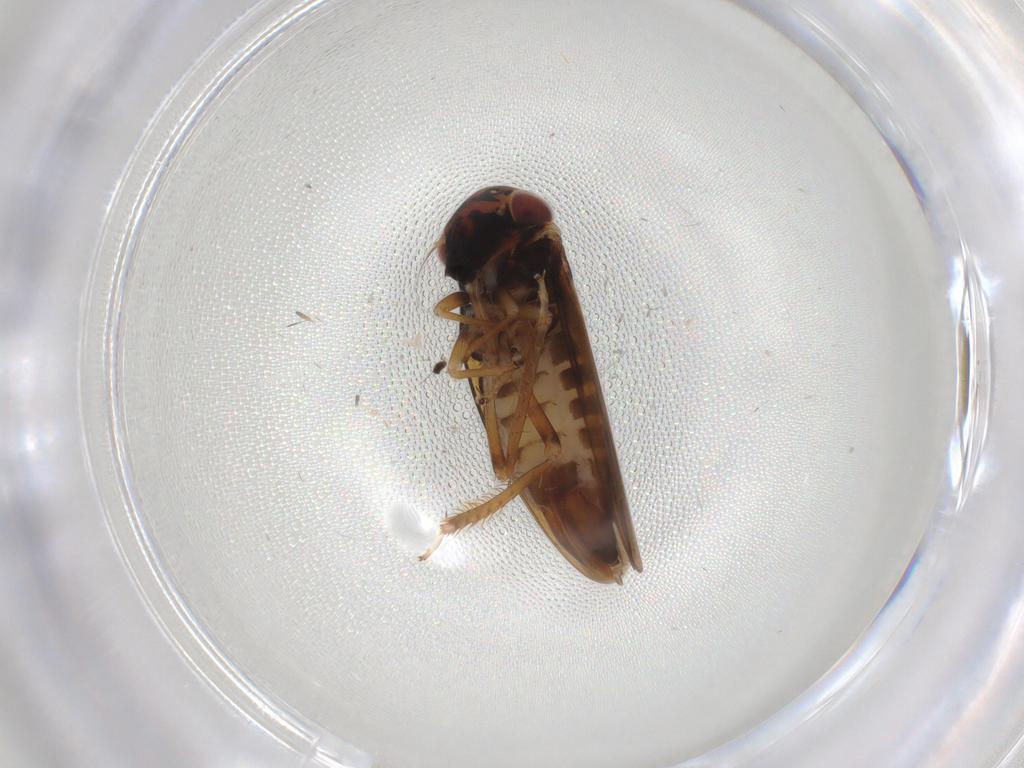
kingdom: Animalia
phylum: Arthropoda
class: Insecta
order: Hemiptera
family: Cicadellidae
